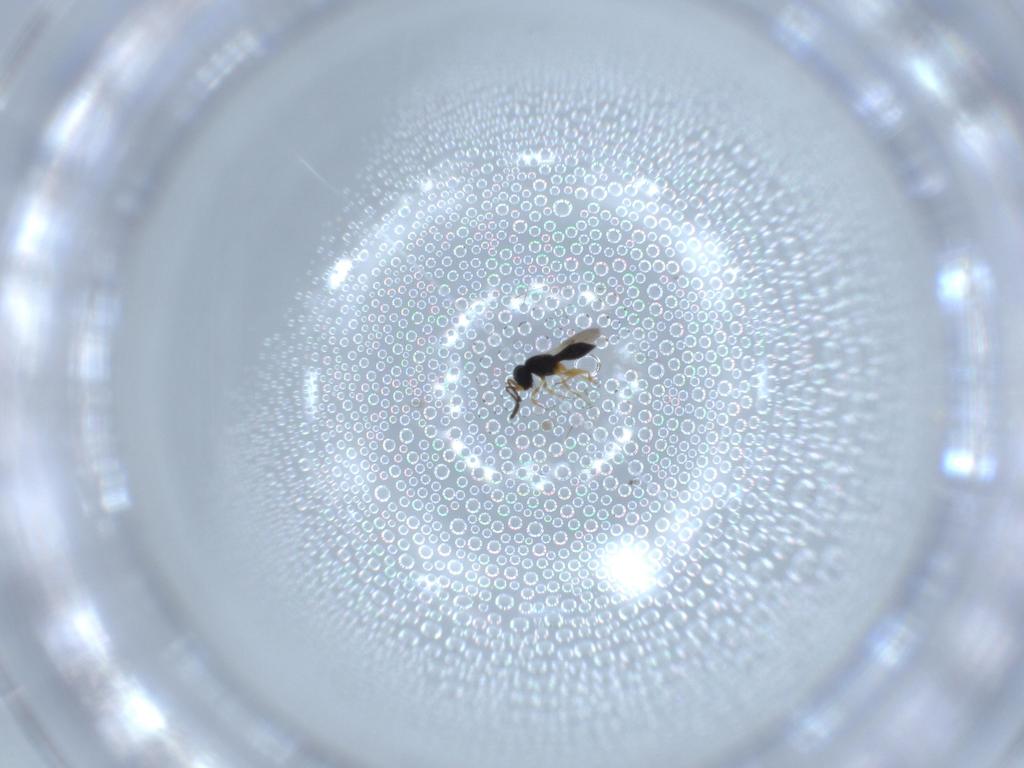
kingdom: Animalia
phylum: Arthropoda
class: Insecta
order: Hymenoptera
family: Scelionidae
